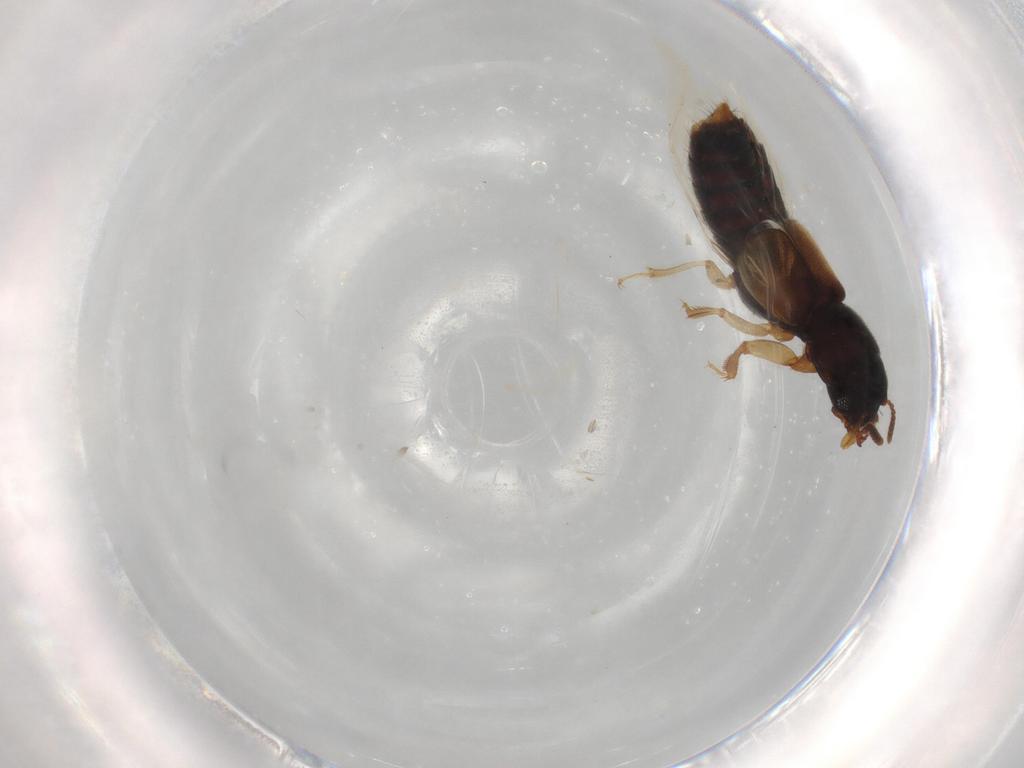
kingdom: Animalia
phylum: Arthropoda
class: Insecta
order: Coleoptera
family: Staphylinidae
